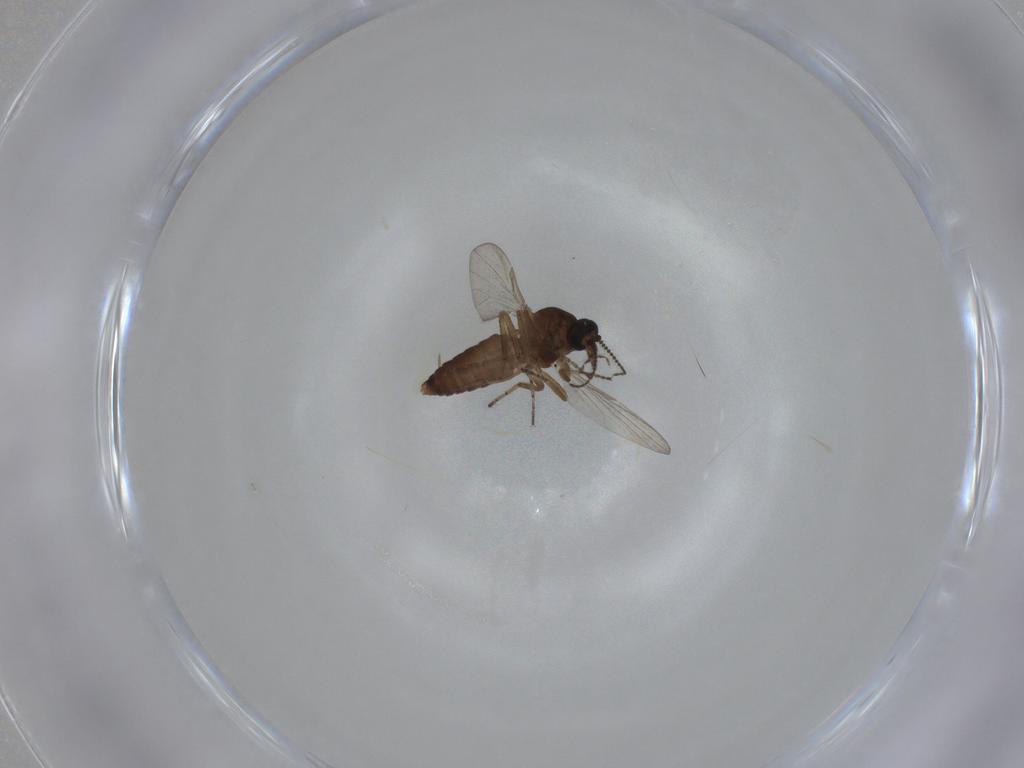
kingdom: Animalia
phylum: Arthropoda
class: Insecta
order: Diptera
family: Ceratopogonidae
